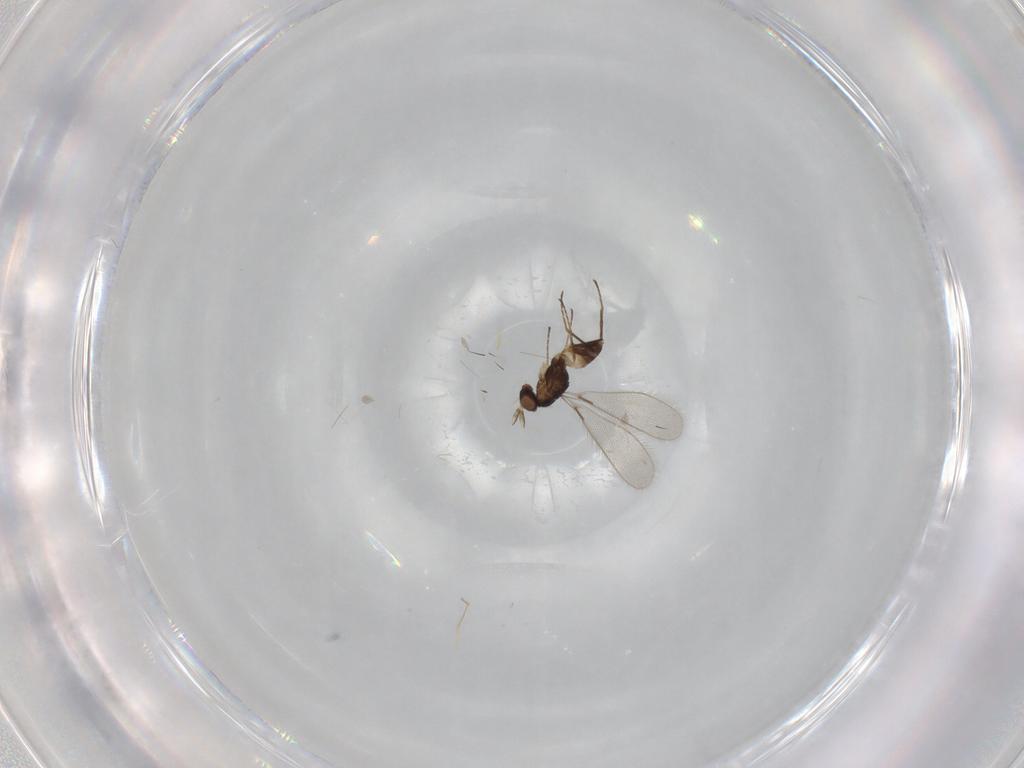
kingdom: Animalia
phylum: Arthropoda
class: Insecta
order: Hymenoptera
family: Mymaridae
